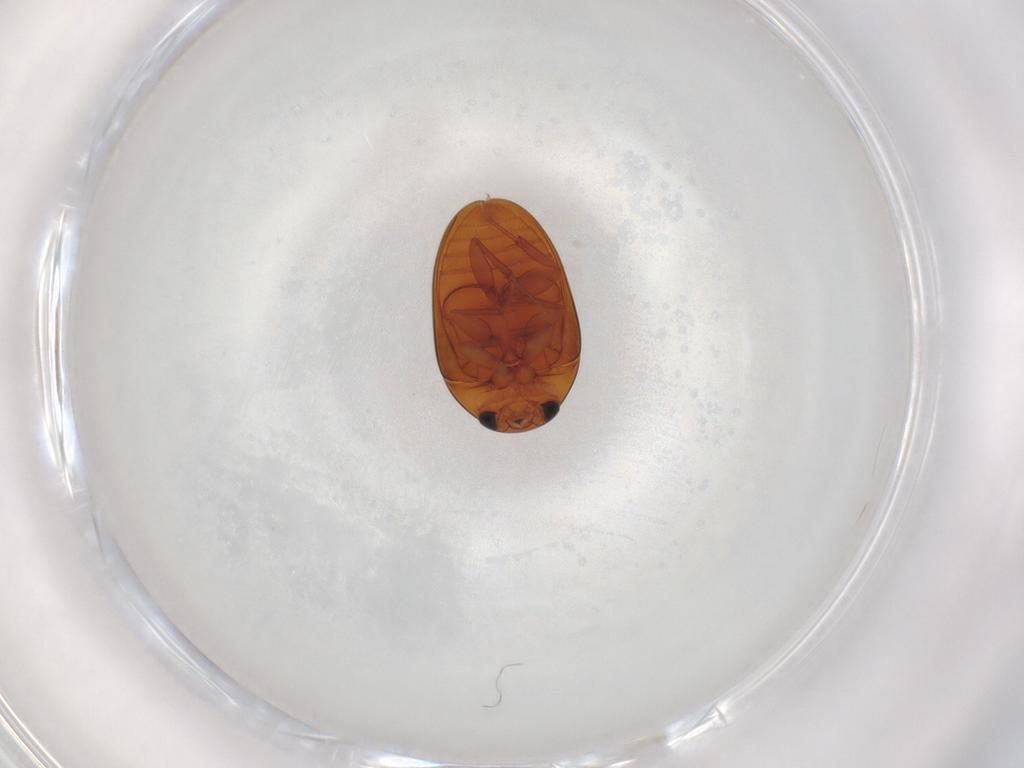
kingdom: Animalia
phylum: Arthropoda
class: Insecta
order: Coleoptera
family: Phalacridae
